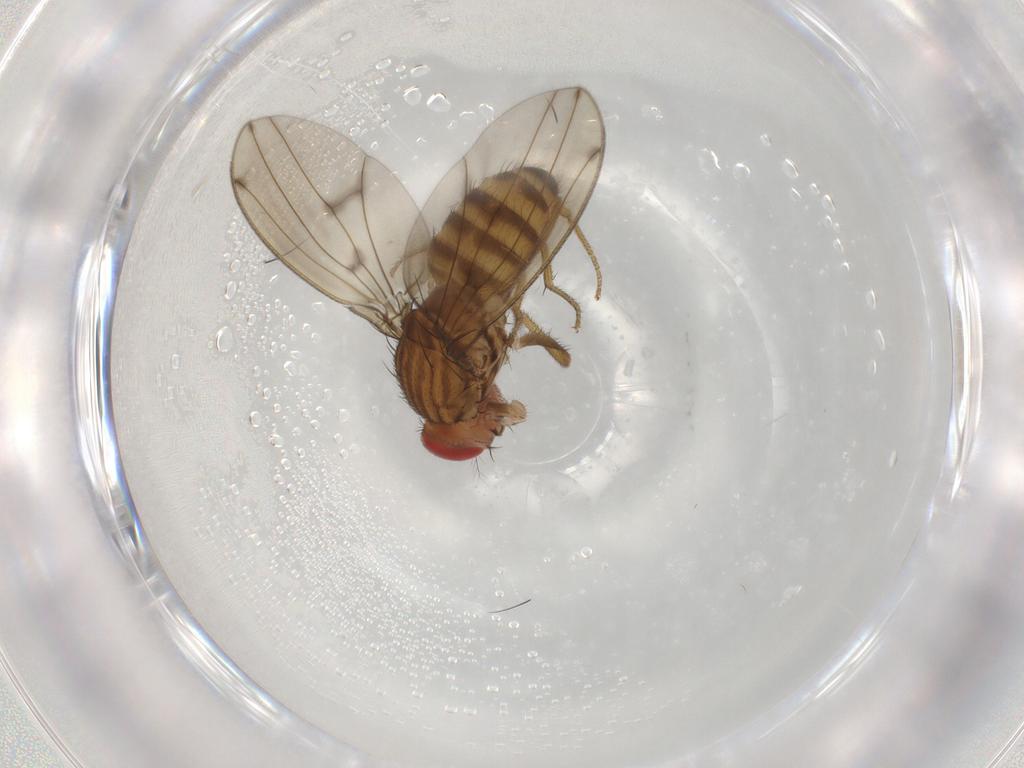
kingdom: Animalia
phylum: Arthropoda
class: Insecta
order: Diptera
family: Drosophilidae
